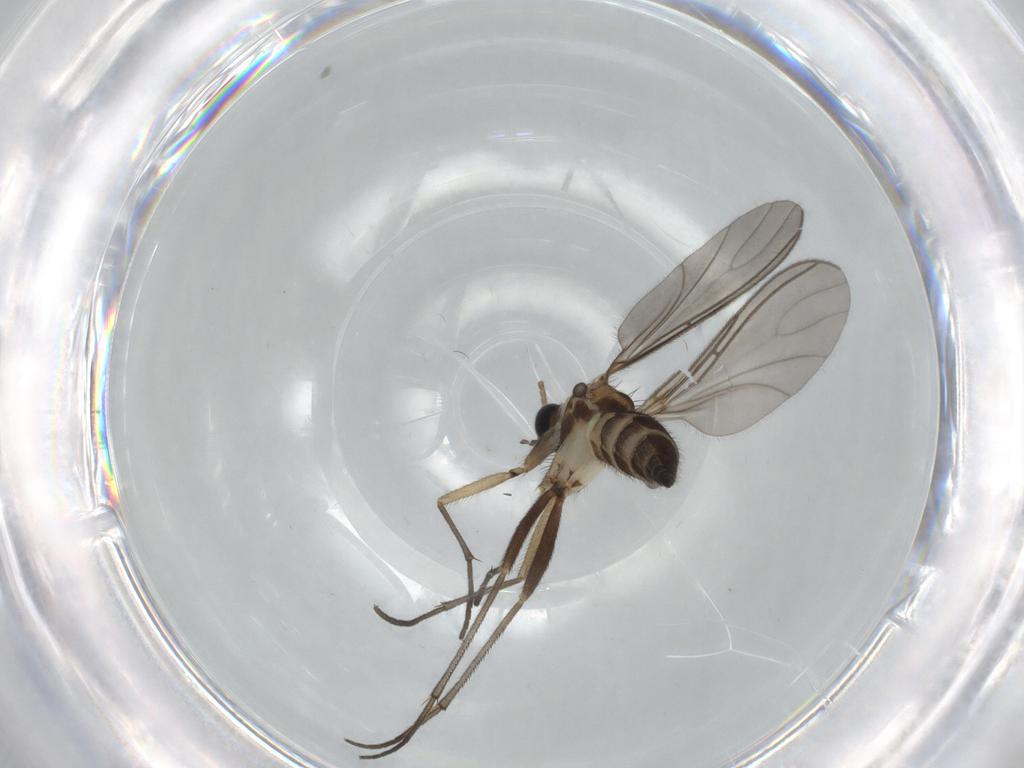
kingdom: Animalia
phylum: Arthropoda
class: Insecta
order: Diptera
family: Sciaridae
